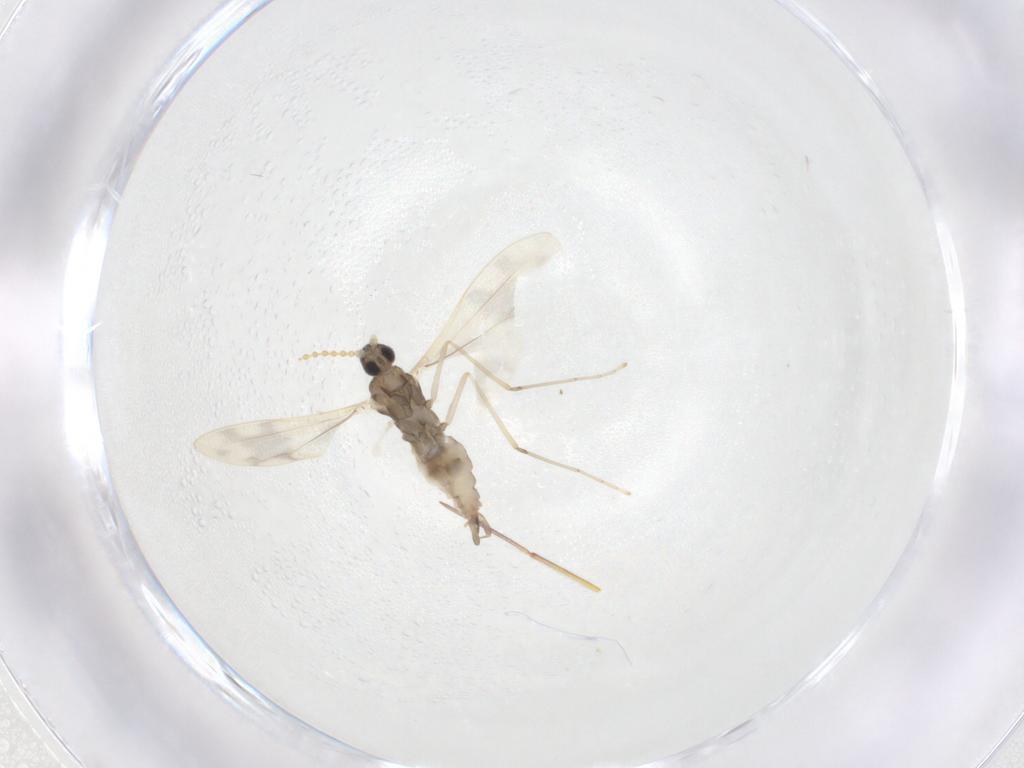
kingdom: Animalia
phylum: Arthropoda
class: Insecta
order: Diptera
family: Cecidomyiidae
